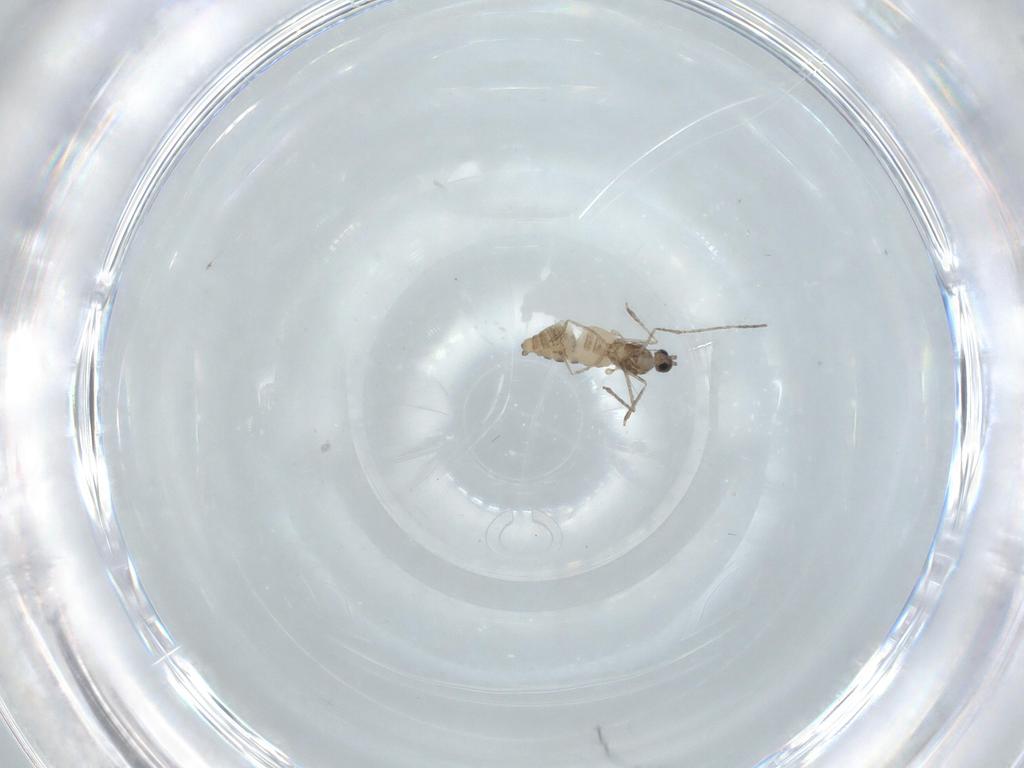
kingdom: Animalia
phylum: Arthropoda
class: Insecta
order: Diptera
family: Cecidomyiidae
